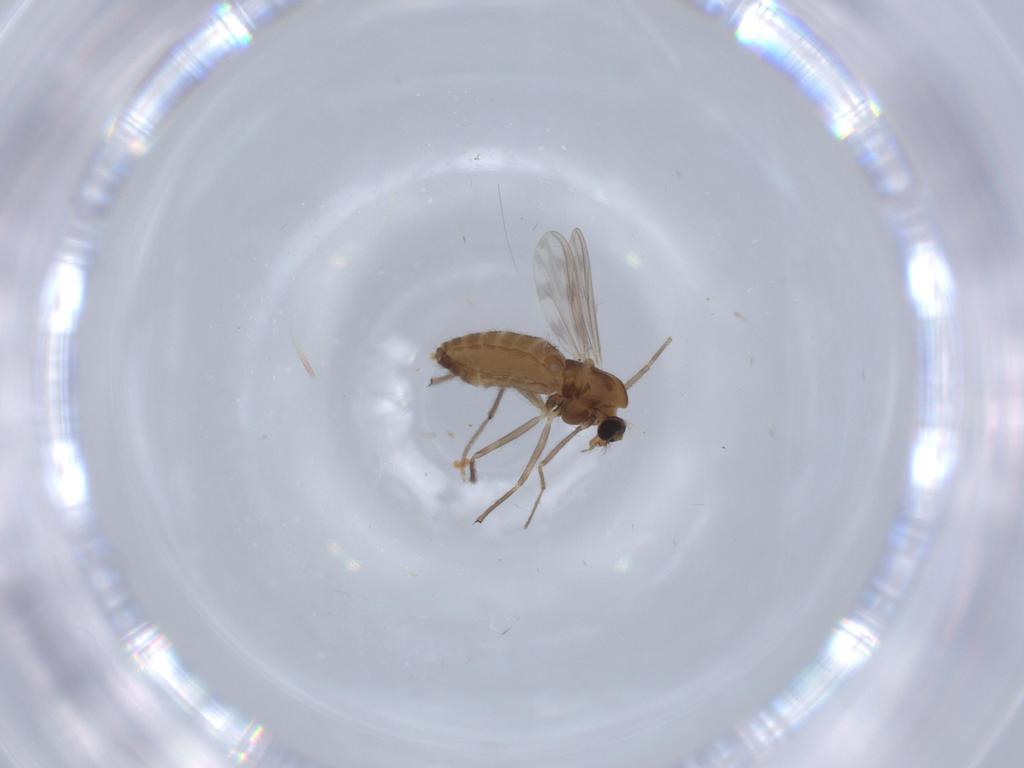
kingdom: Animalia
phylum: Arthropoda
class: Insecta
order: Diptera
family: Chironomidae
